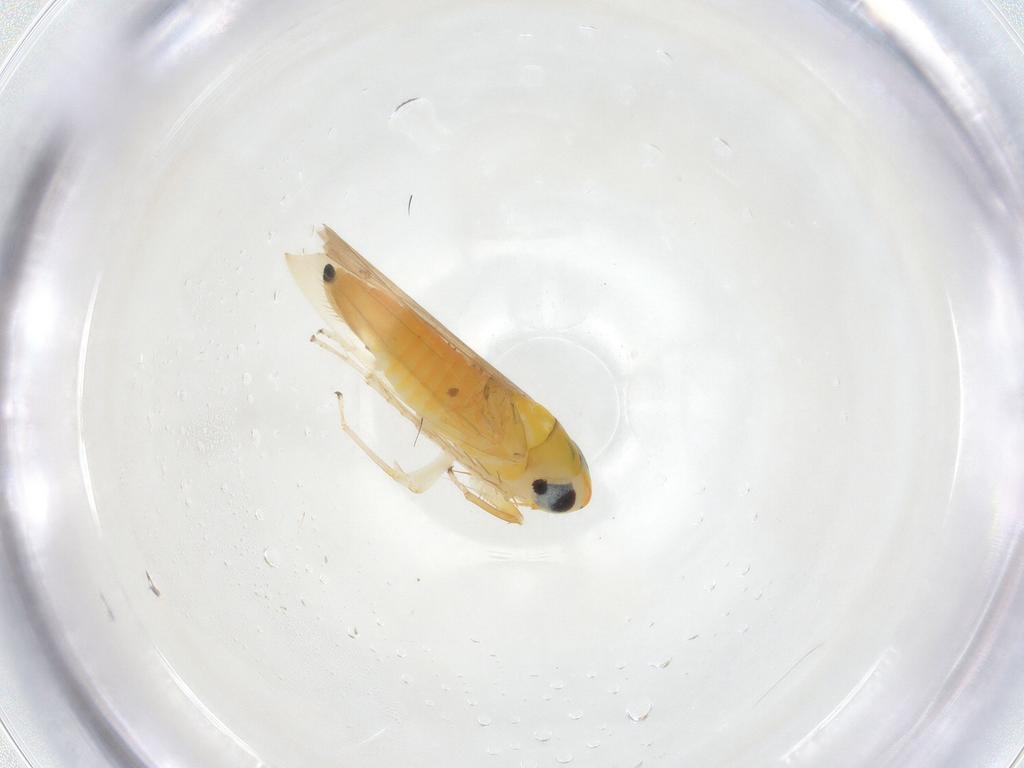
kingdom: Animalia
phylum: Arthropoda
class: Insecta
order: Hemiptera
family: Cicadellidae
